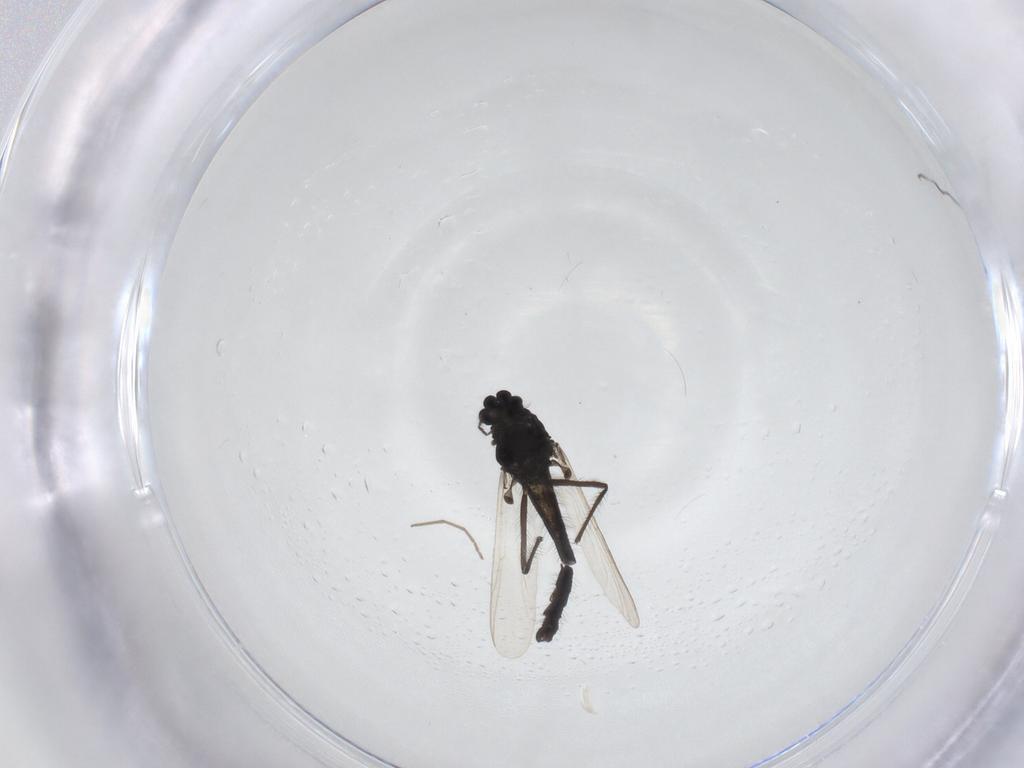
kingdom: Animalia
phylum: Arthropoda
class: Insecta
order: Diptera
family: Chironomidae
